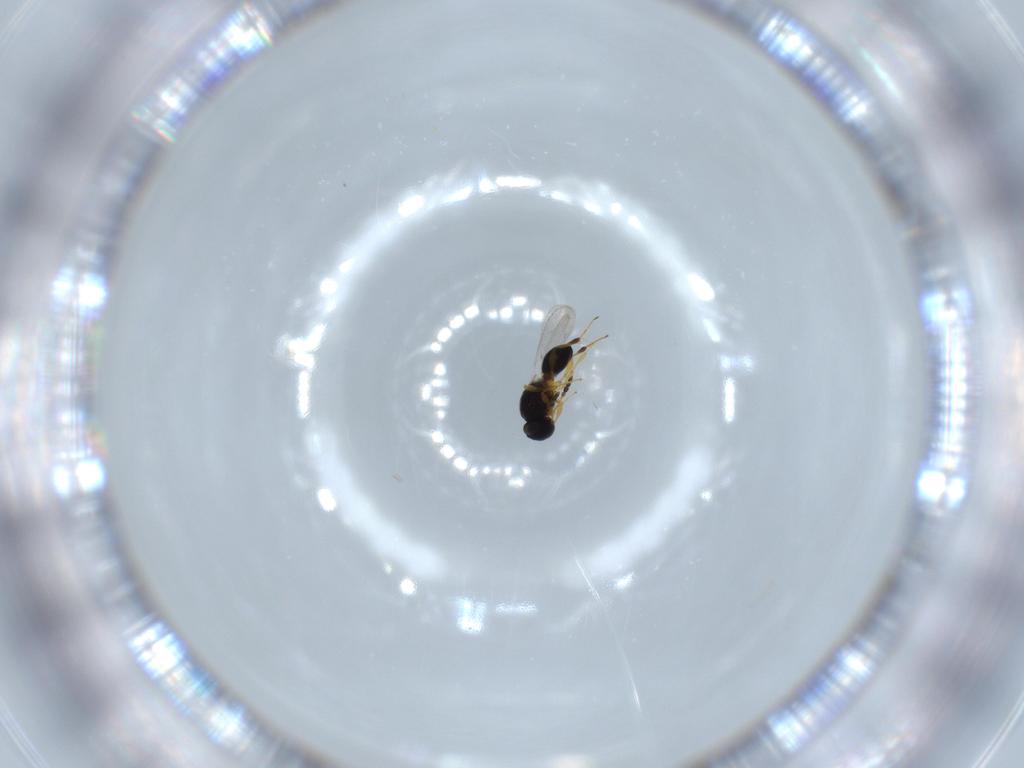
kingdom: Animalia
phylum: Arthropoda
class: Insecta
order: Hymenoptera
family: Platygastridae
